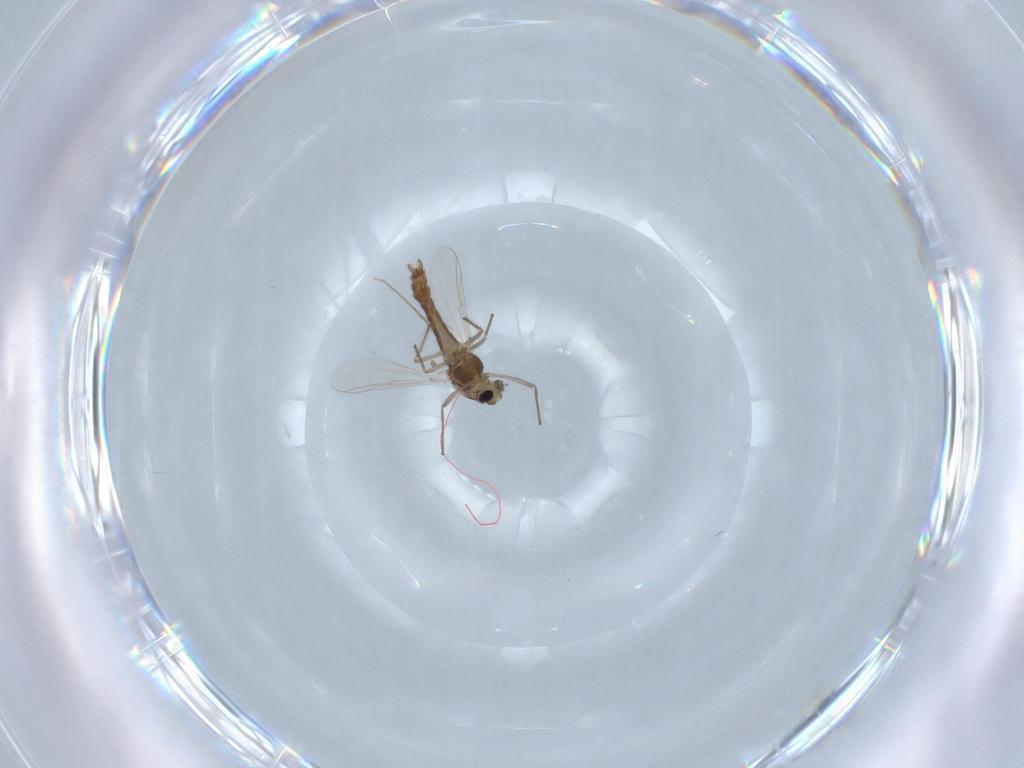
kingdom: Animalia
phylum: Arthropoda
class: Insecta
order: Diptera
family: Chironomidae
